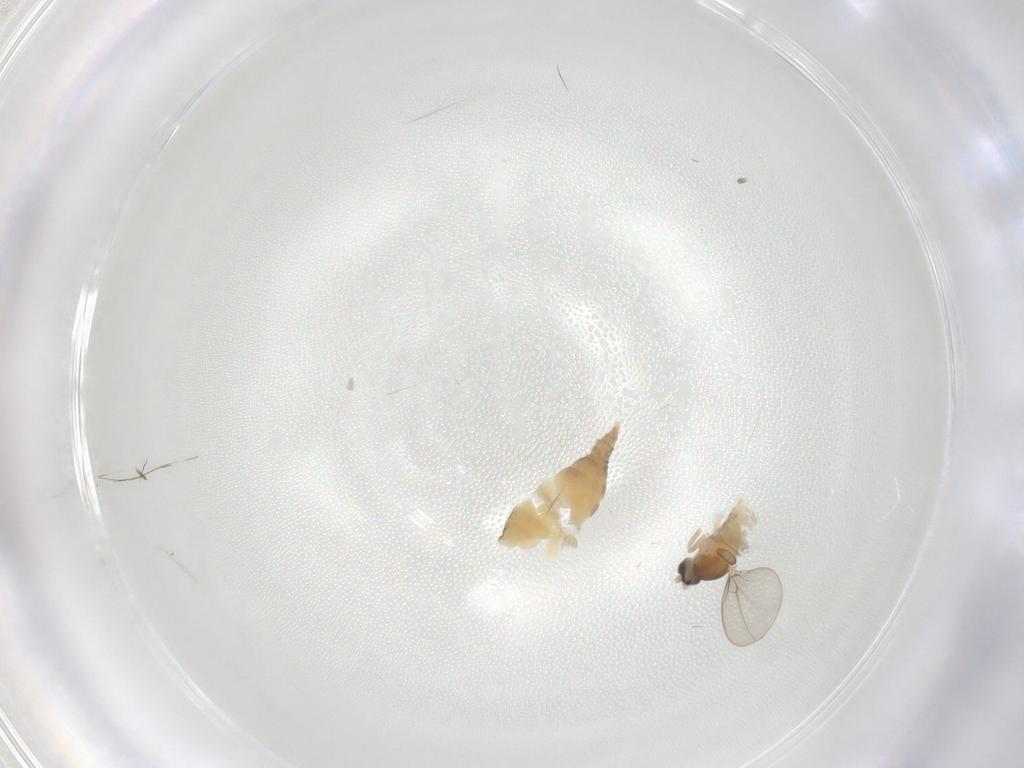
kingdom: Animalia
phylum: Arthropoda
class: Insecta
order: Diptera
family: Cecidomyiidae
